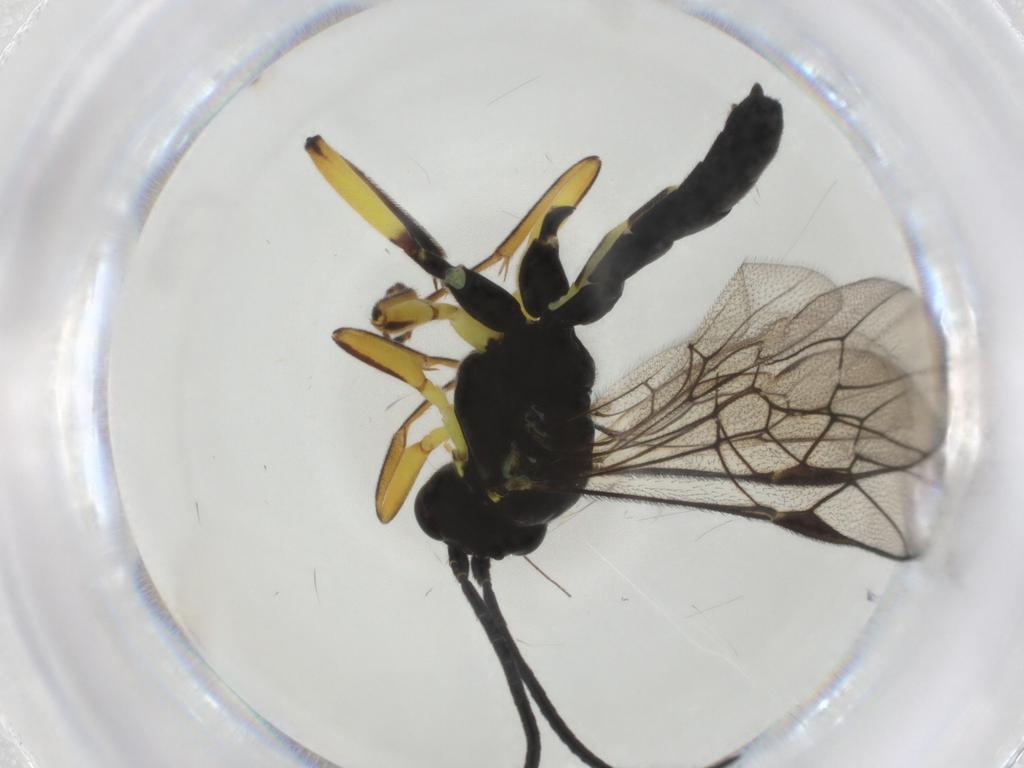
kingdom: Animalia
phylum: Arthropoda
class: Insecta
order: Hymenoptera
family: Ichneumonidae
